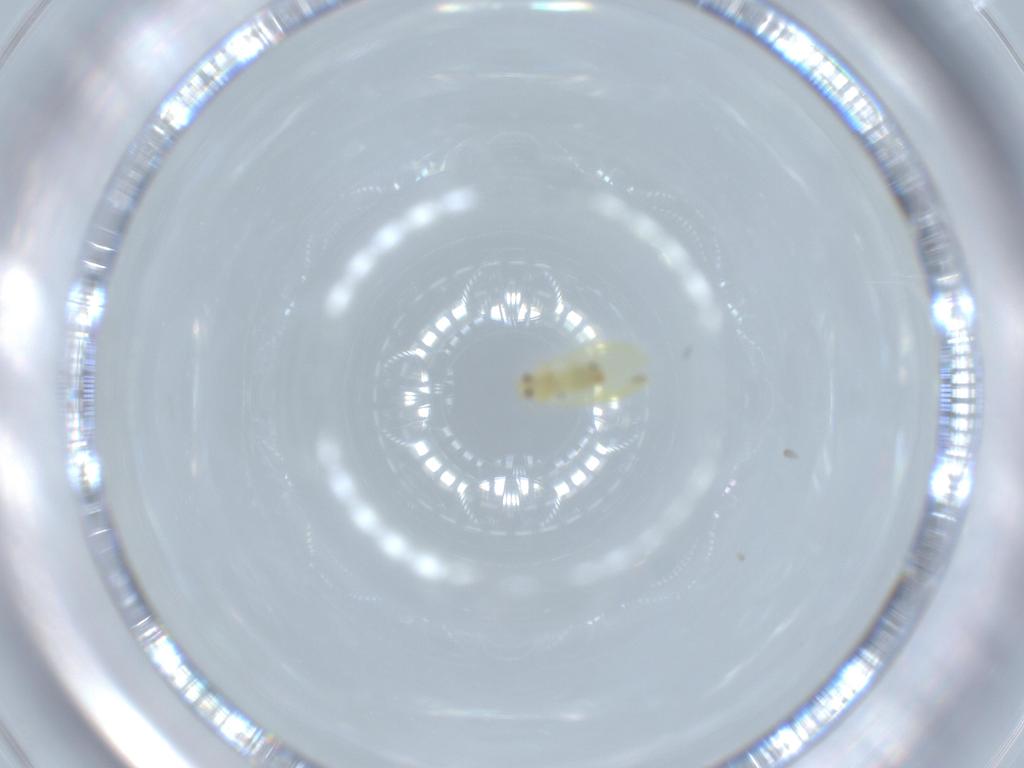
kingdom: Animalia
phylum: Arthropoda
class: Insecta
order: Hemiptera
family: Aleyrodidae
